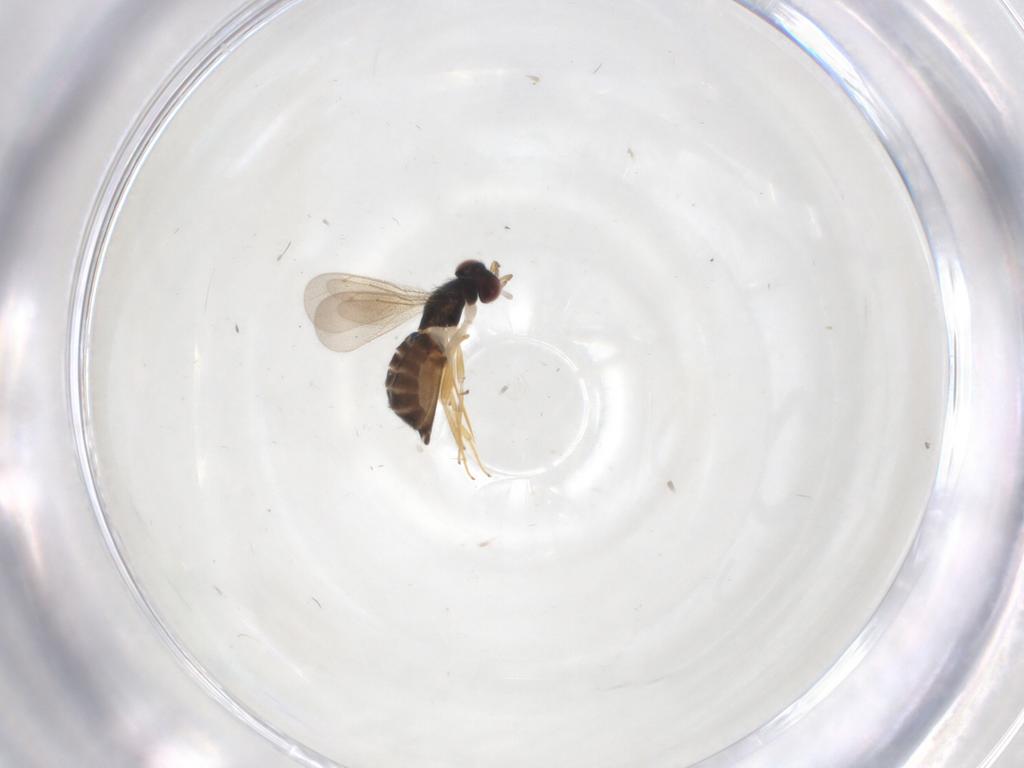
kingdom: Animalia
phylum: Arthropoda
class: Insecta
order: Hymenoptera
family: Eulophidae
